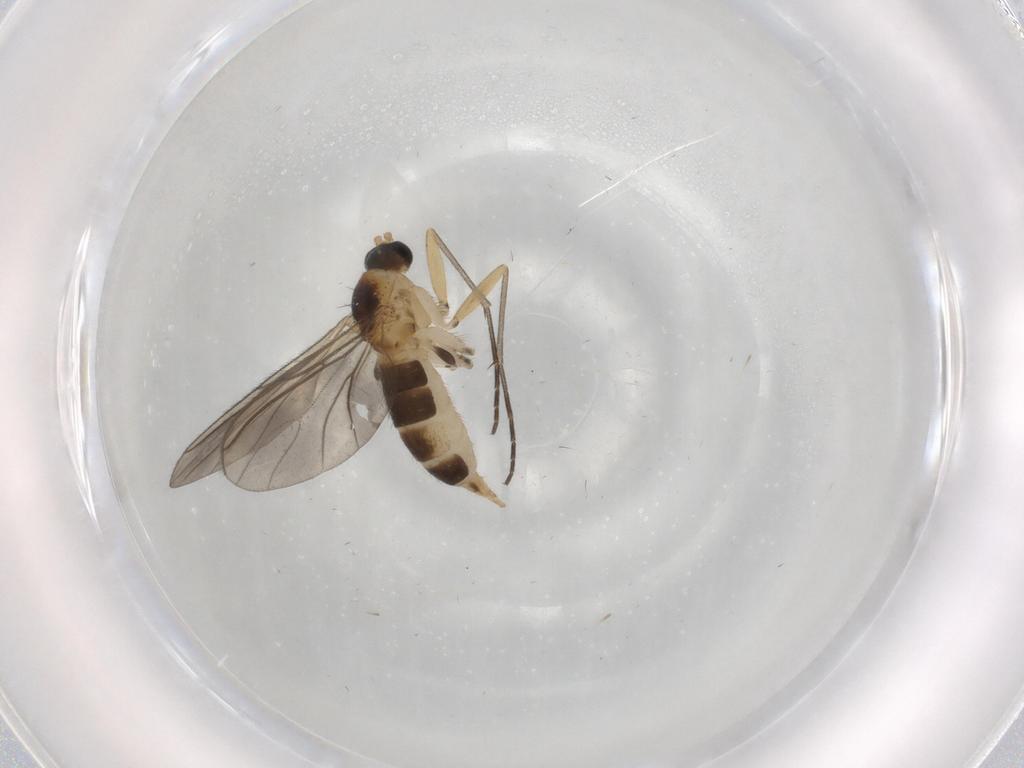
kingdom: Animalia
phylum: Arthropoda
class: Insecta
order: Diptera
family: Sciaridae
